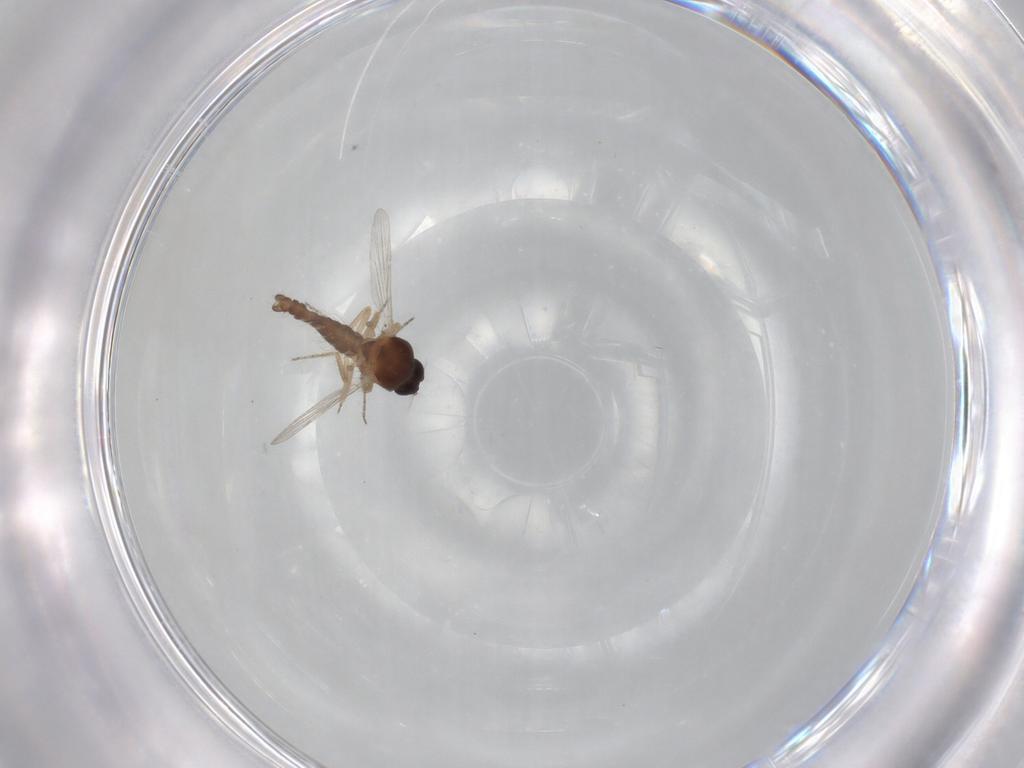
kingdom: Animalia
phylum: Arthropoda
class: Insecta
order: Diptera
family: Ceratopogonidae
